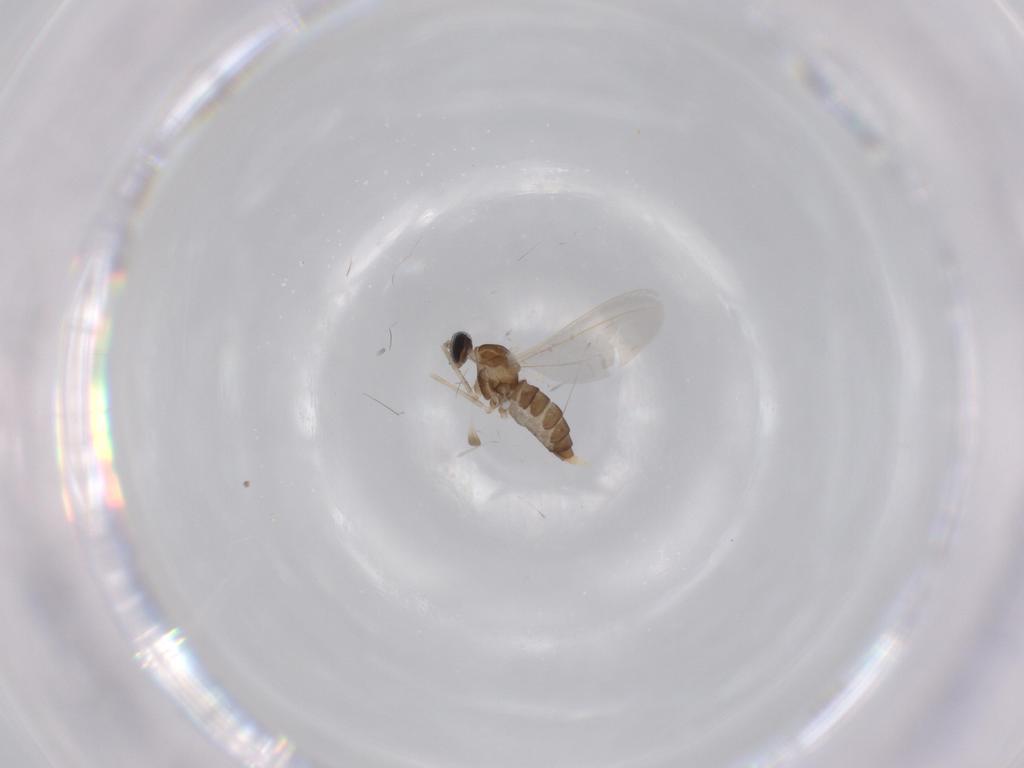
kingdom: Animalia
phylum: Arthropoda
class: Insecta
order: Diptera
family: Cecidomyiidae
